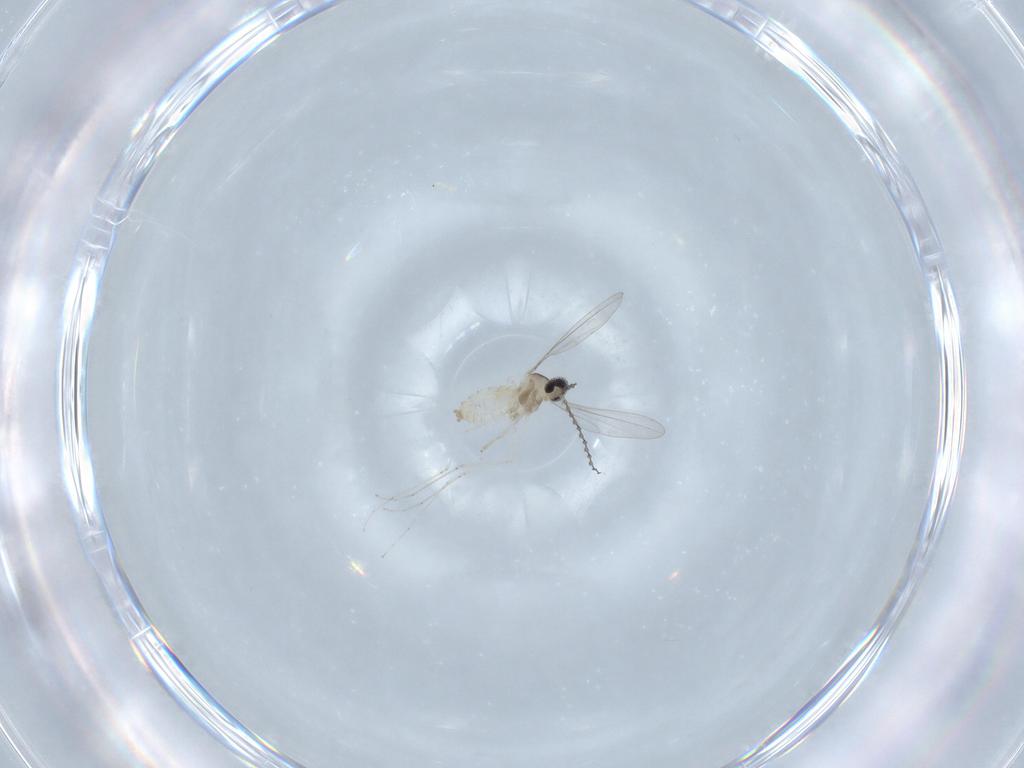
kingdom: Animalia
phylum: Arthropoda
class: Insecta
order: Diptera
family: Cecidomyiidae
